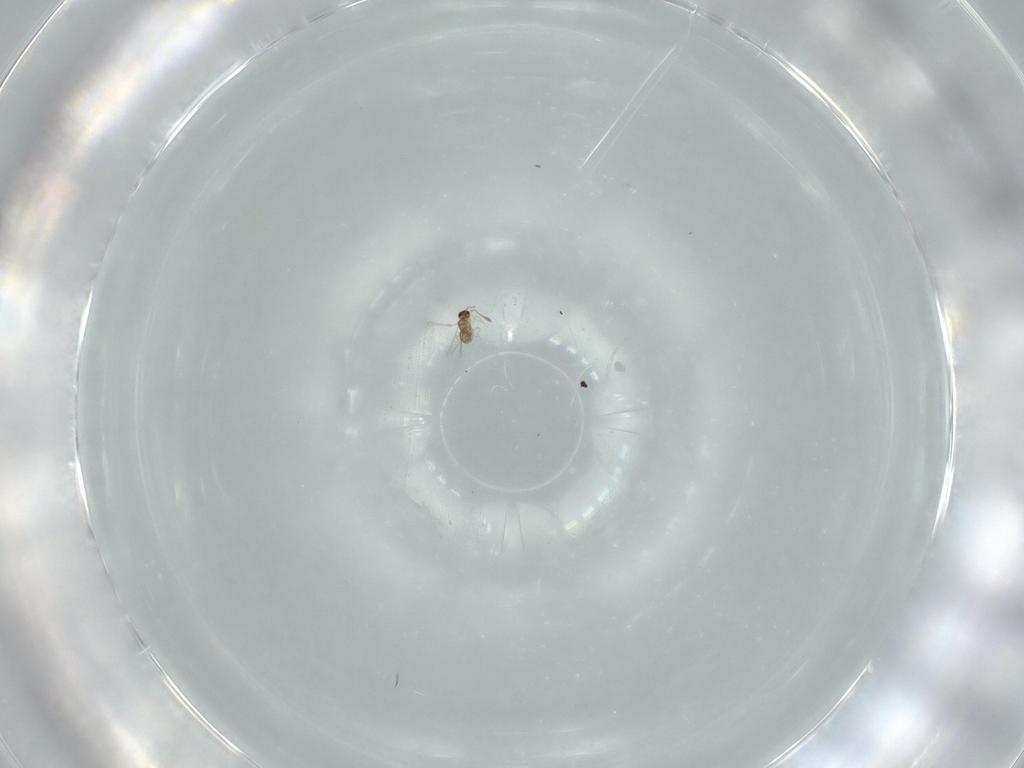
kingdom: Animalia
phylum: Arthropoda
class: Insecta
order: Hymenoptera
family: Mymaridae
